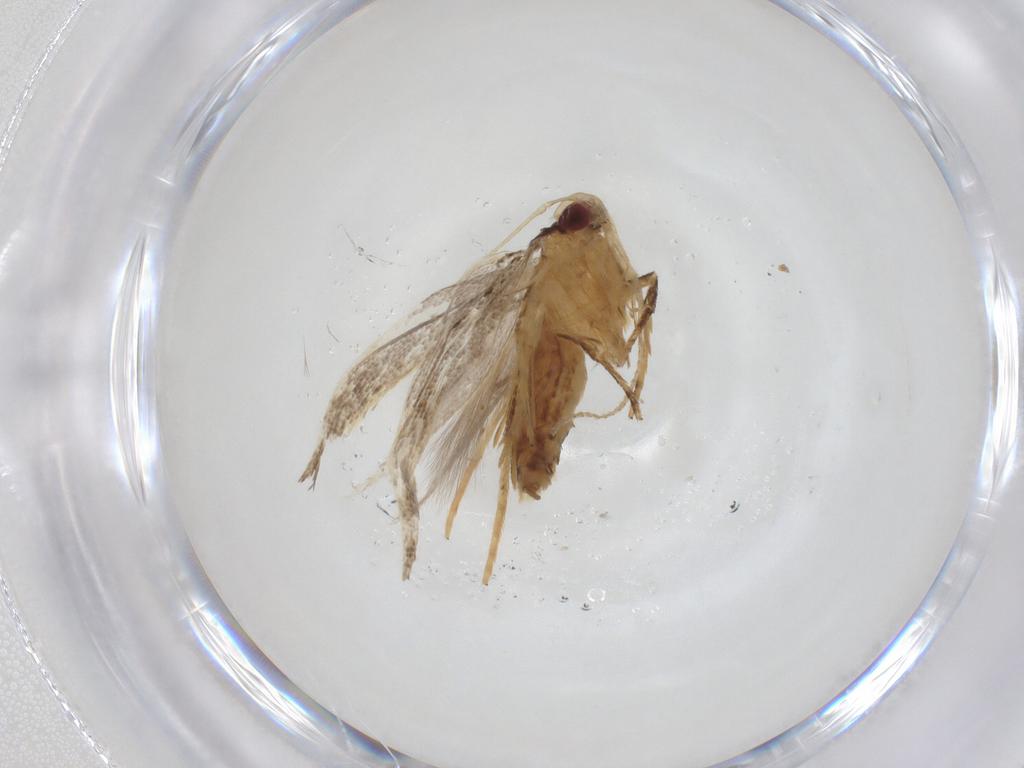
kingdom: Animalia
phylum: Arthropoda
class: Insecta
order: Lepidoptera
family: Cosmopterigidae
